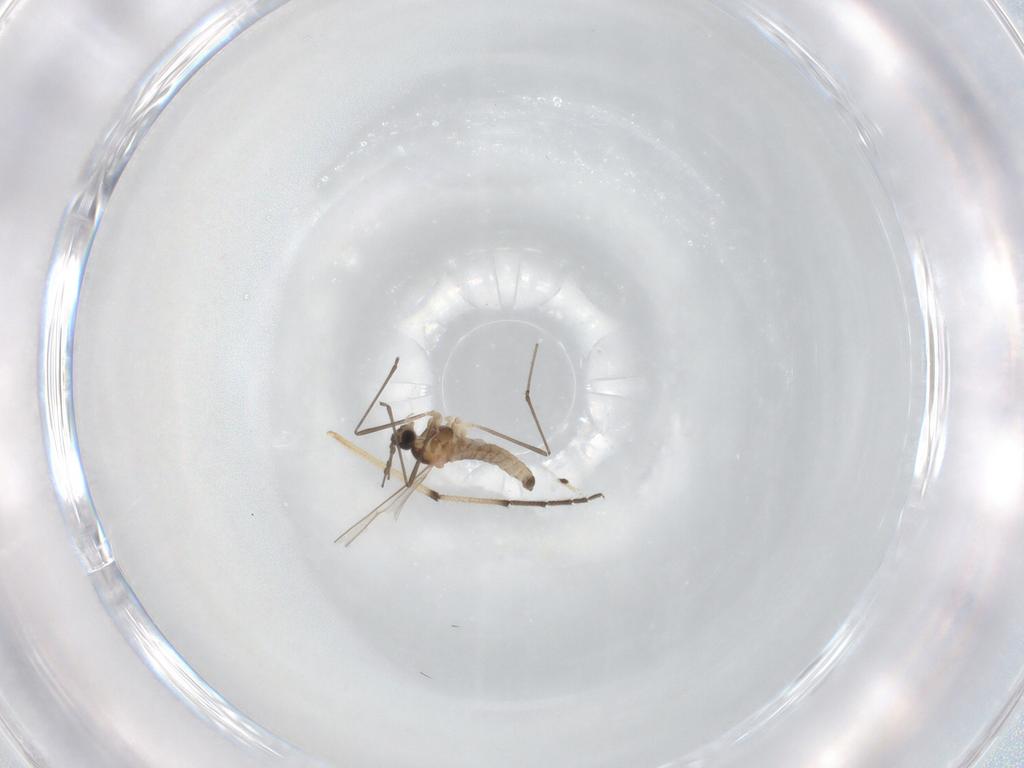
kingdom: Animalia
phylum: Arthropoda
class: Insecta
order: Diptera
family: Cecidomyiidae
